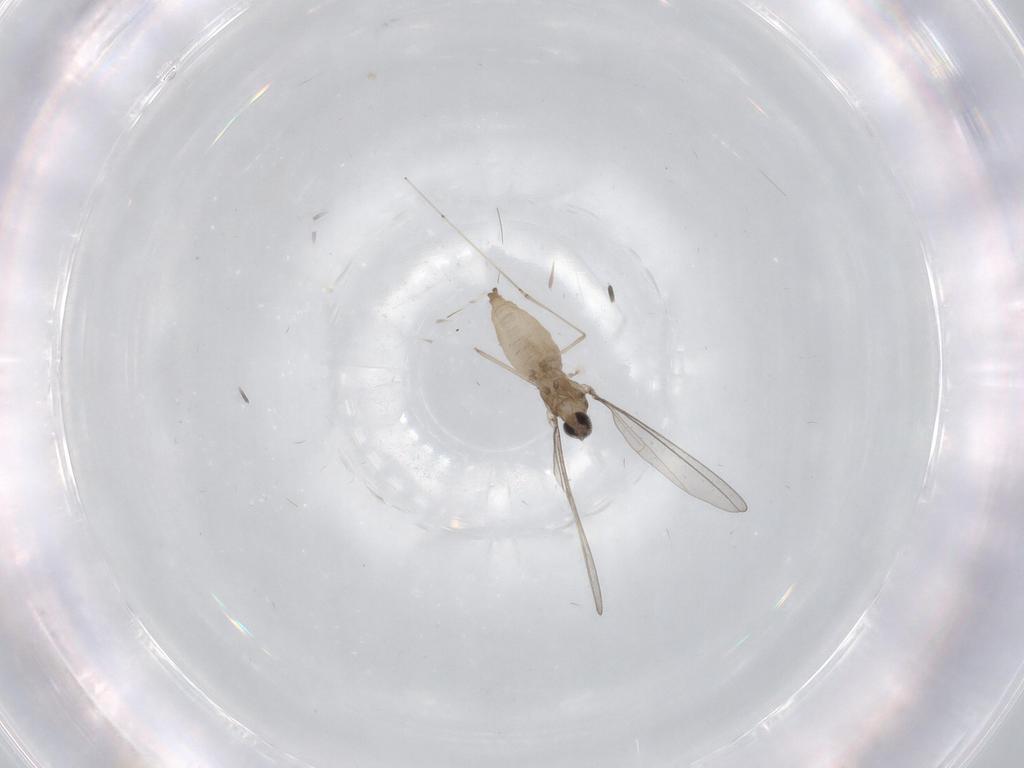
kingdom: Animalia
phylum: Arthropoda
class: Insecta
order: Diptera
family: Cecidomyiidae
